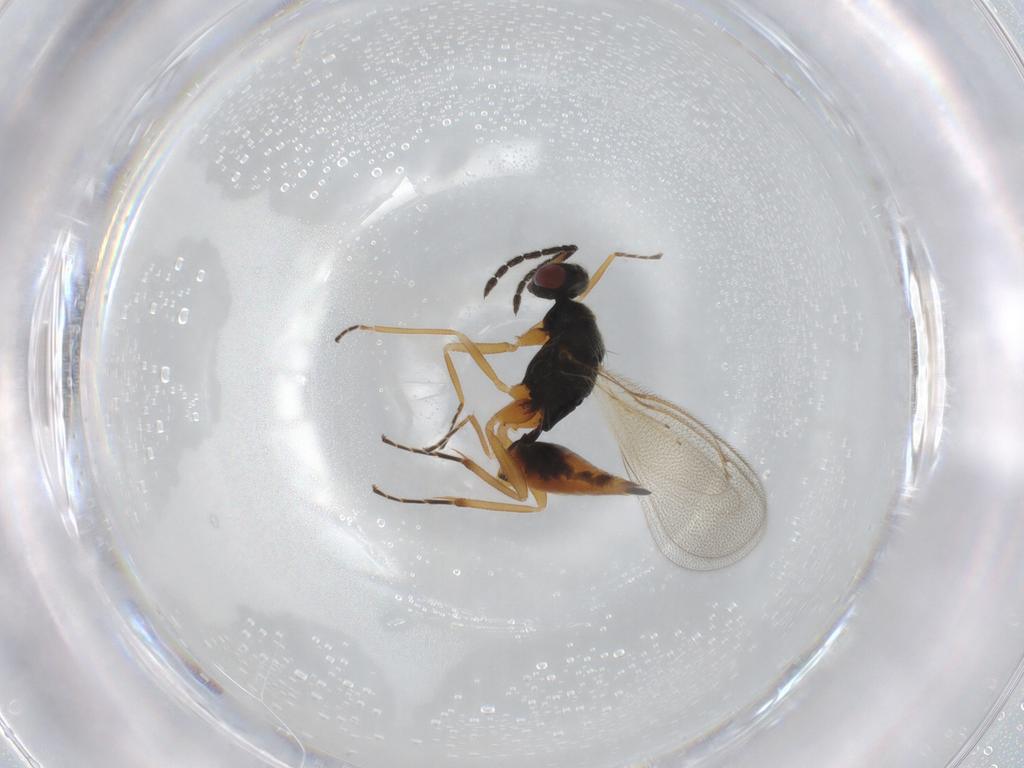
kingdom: Animalia
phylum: Arthropoda
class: Insecta
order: Hymenoptera
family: Eulophidae
